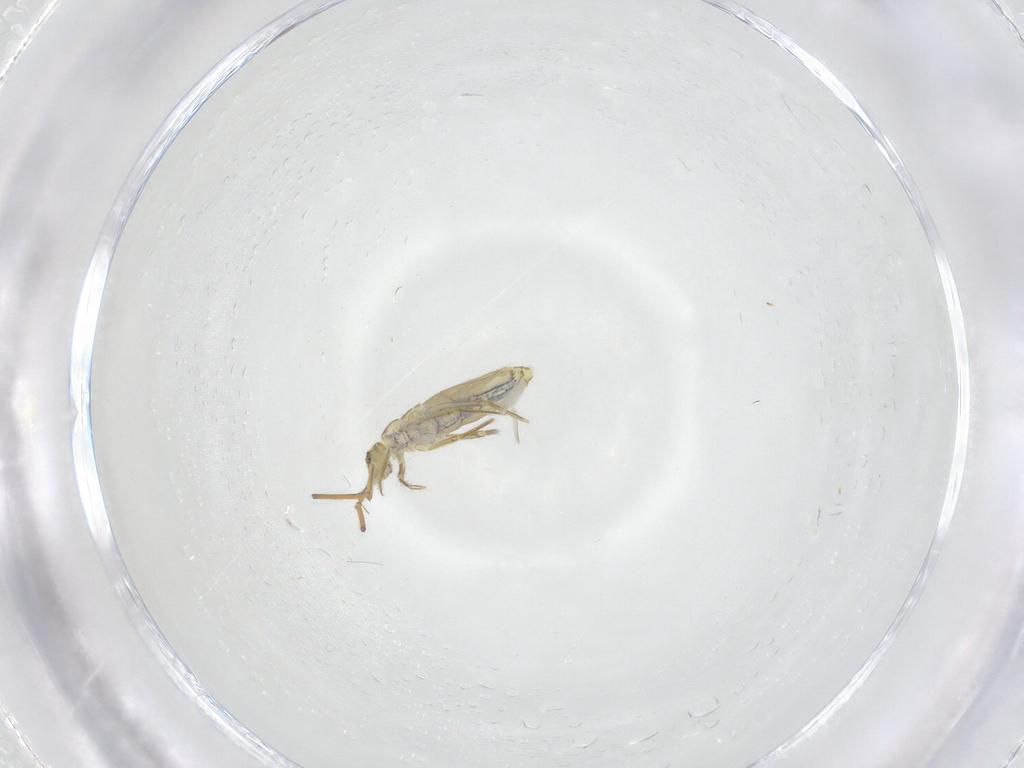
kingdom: Animalia
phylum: Arthropoda
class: Collembola
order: Entomobryomorpha
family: Entomobryidae
